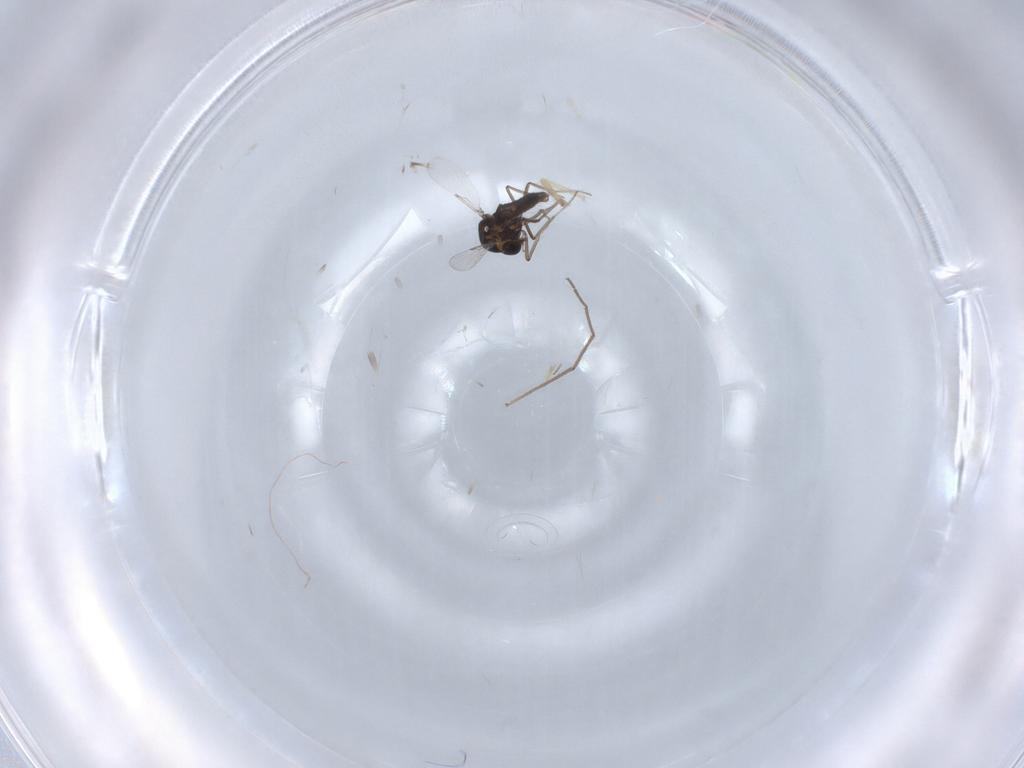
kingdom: Animalia
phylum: Arthropoda
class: Insecta
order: Diptera
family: Ceratopogonidae
